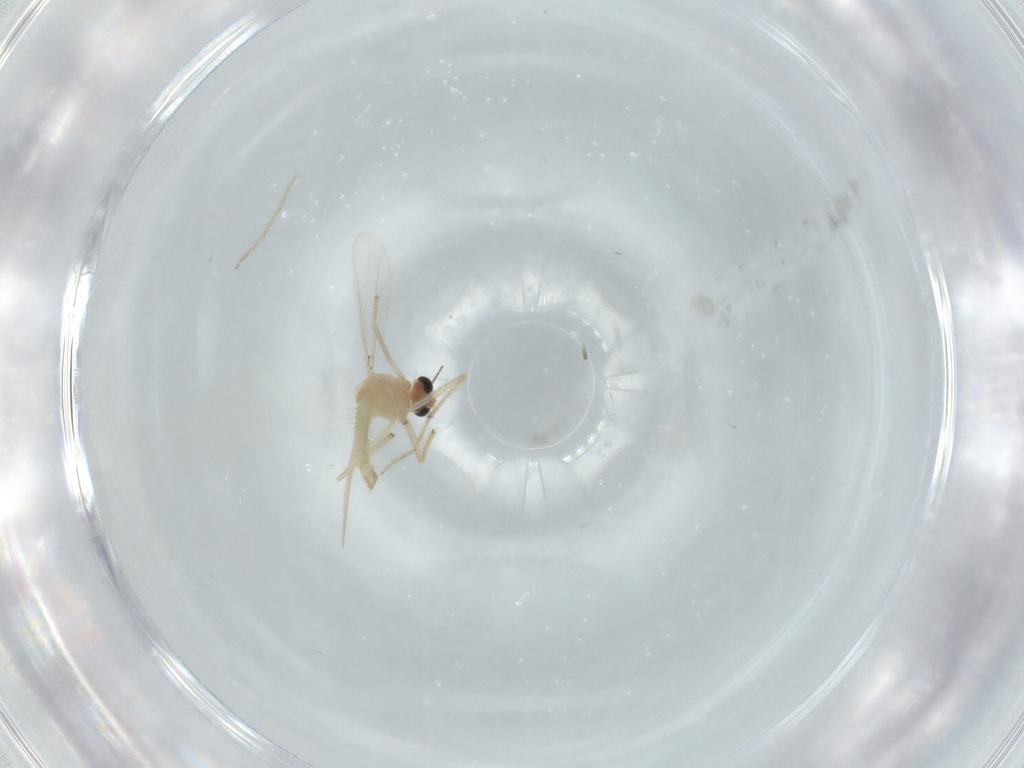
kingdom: Animalia
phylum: Arthropoda
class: Insecta
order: Diptera
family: Chironomidae
